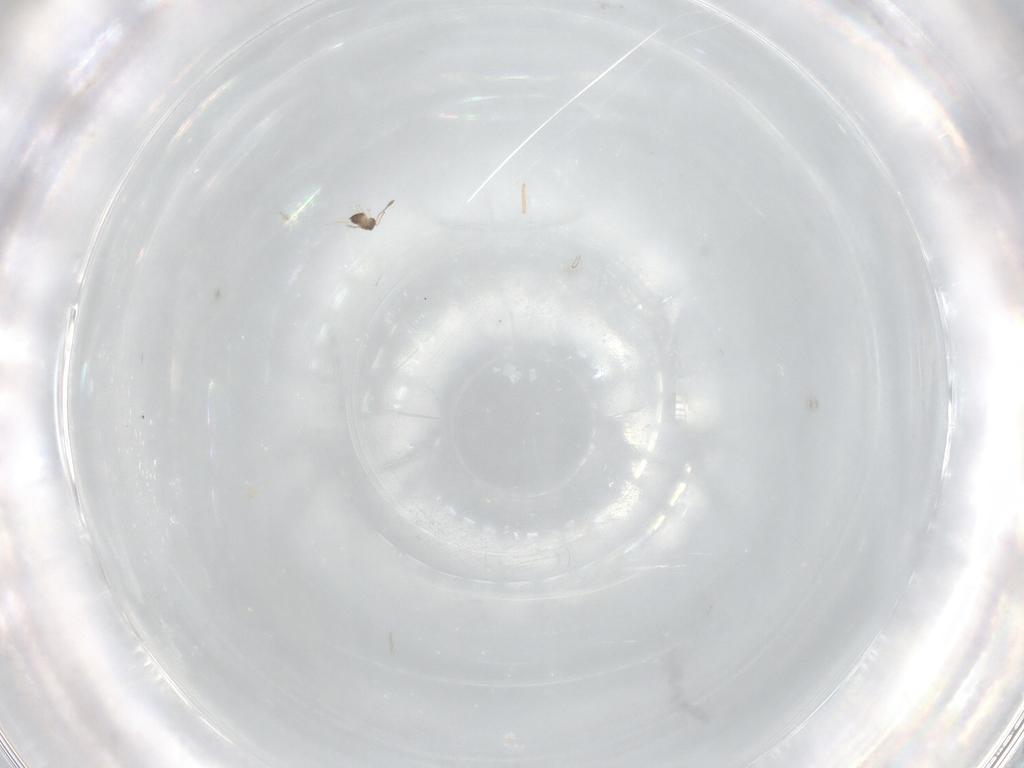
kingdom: Animalia
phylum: Arthropoda
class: Insecta
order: Hymenoptera
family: Mymaridae
